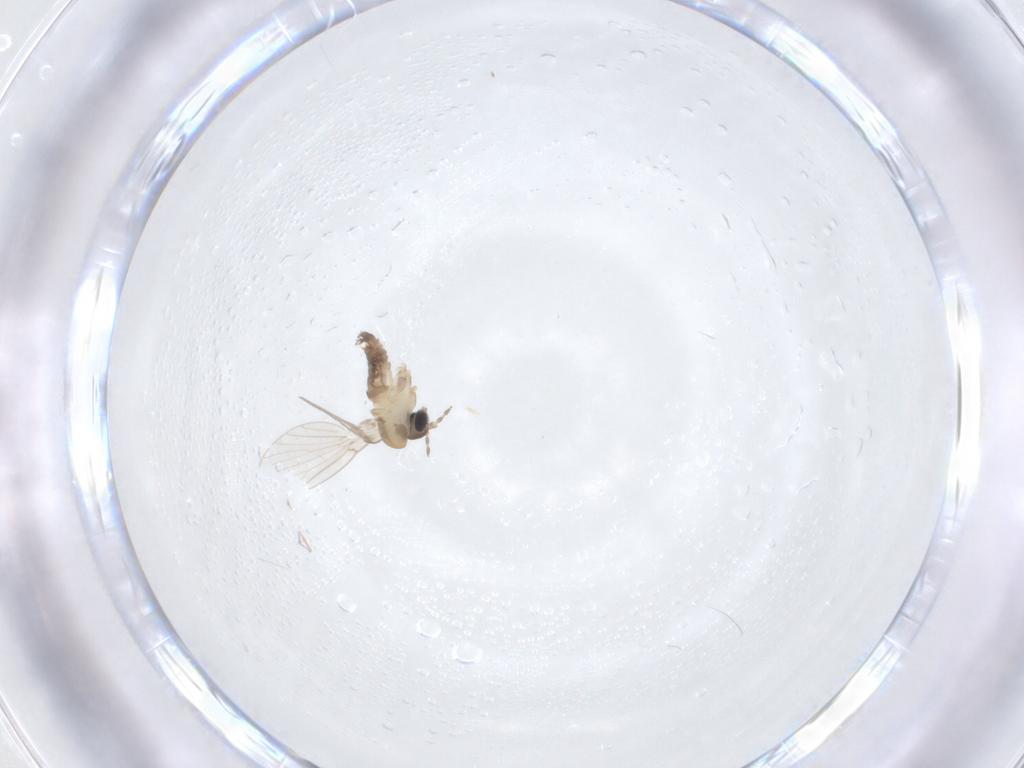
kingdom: Animalia
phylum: Arthropoda
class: Insecta
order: Diptera
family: Psychodidae
